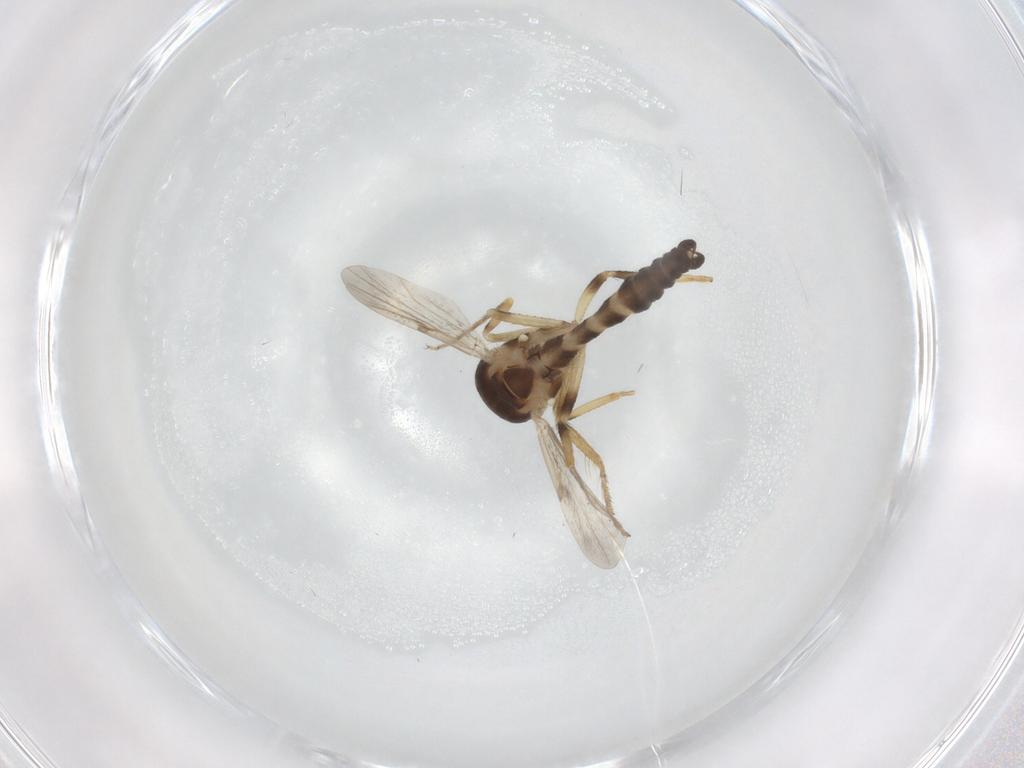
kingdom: Animalia
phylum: Arthropoda
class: Insecta
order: Diptera
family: Ceratopogonidae
